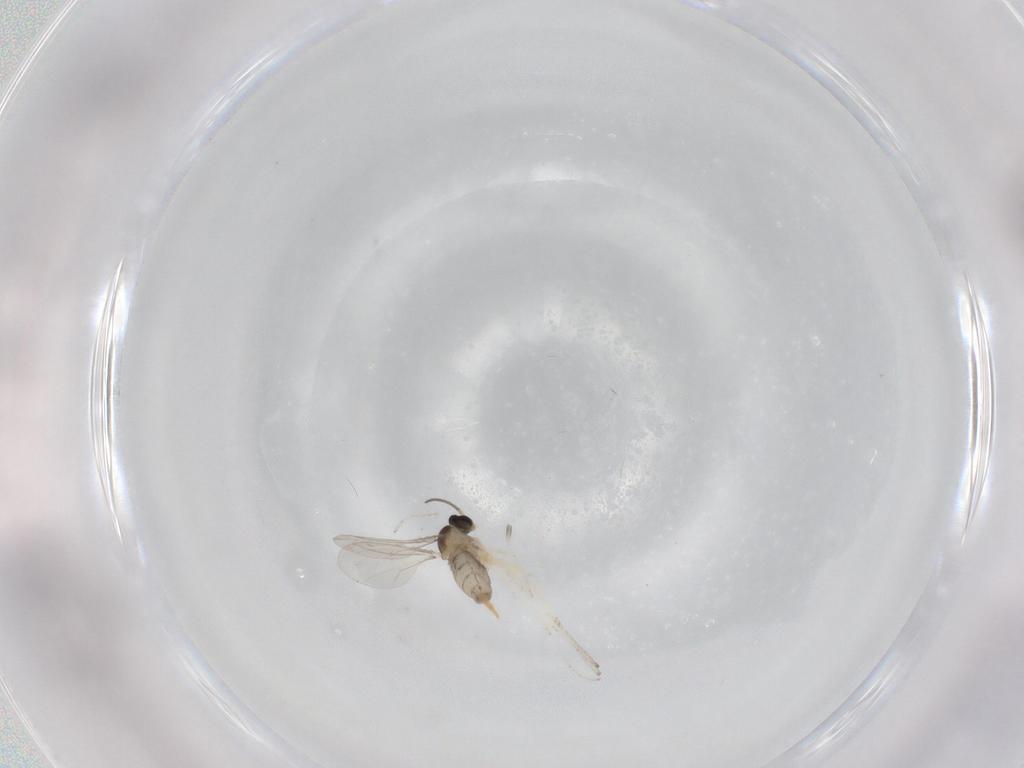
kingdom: Animalia
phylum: Arthropoda
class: Insecta
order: Diptera
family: Cecidomyiidae
